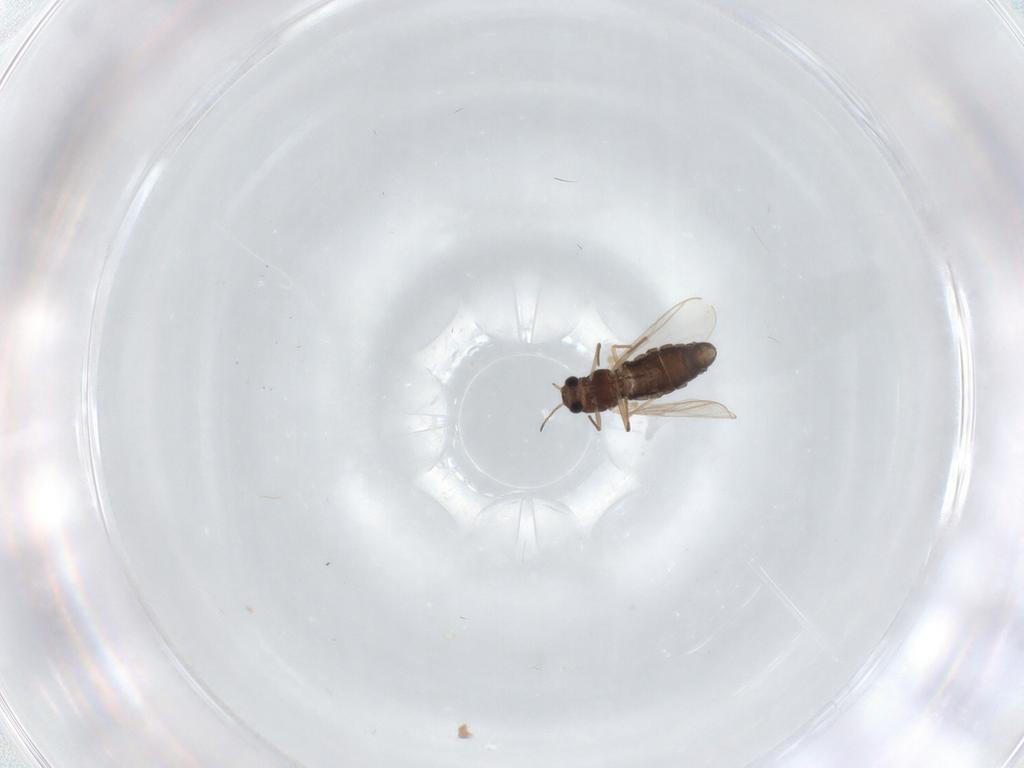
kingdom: Animalia
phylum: Arthropoda
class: Insecta
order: Diptera
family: Chironomidae
